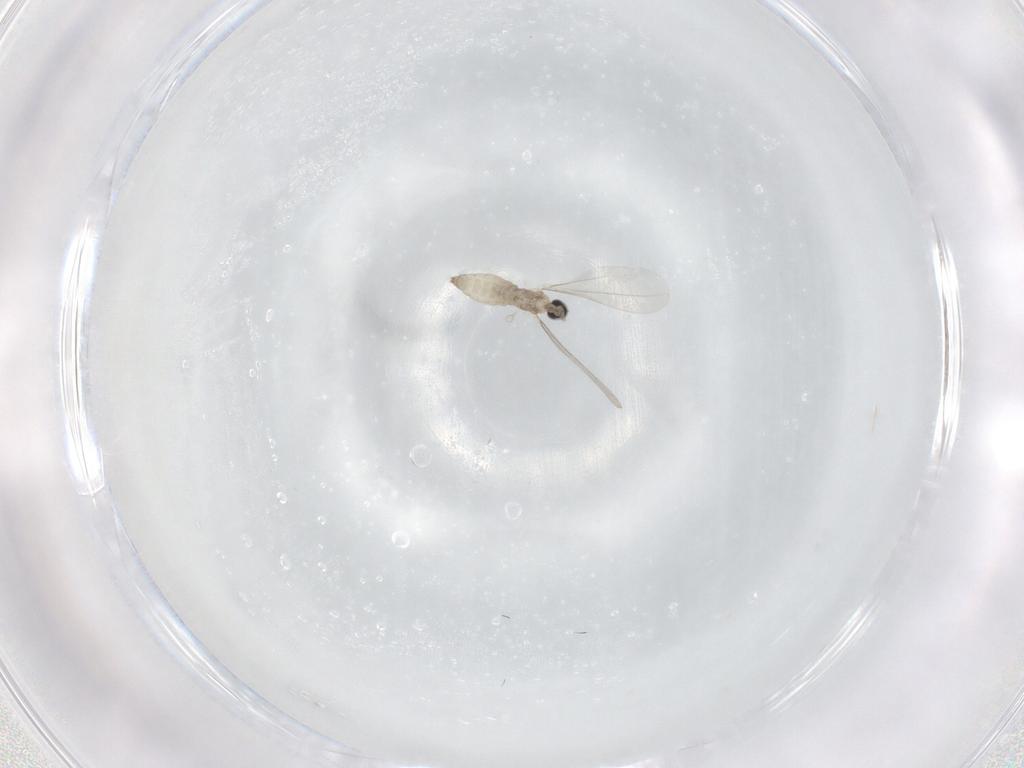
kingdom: Animalia
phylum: Arthropoda
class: Insecta
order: Diptera
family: Cecidomyiidae
